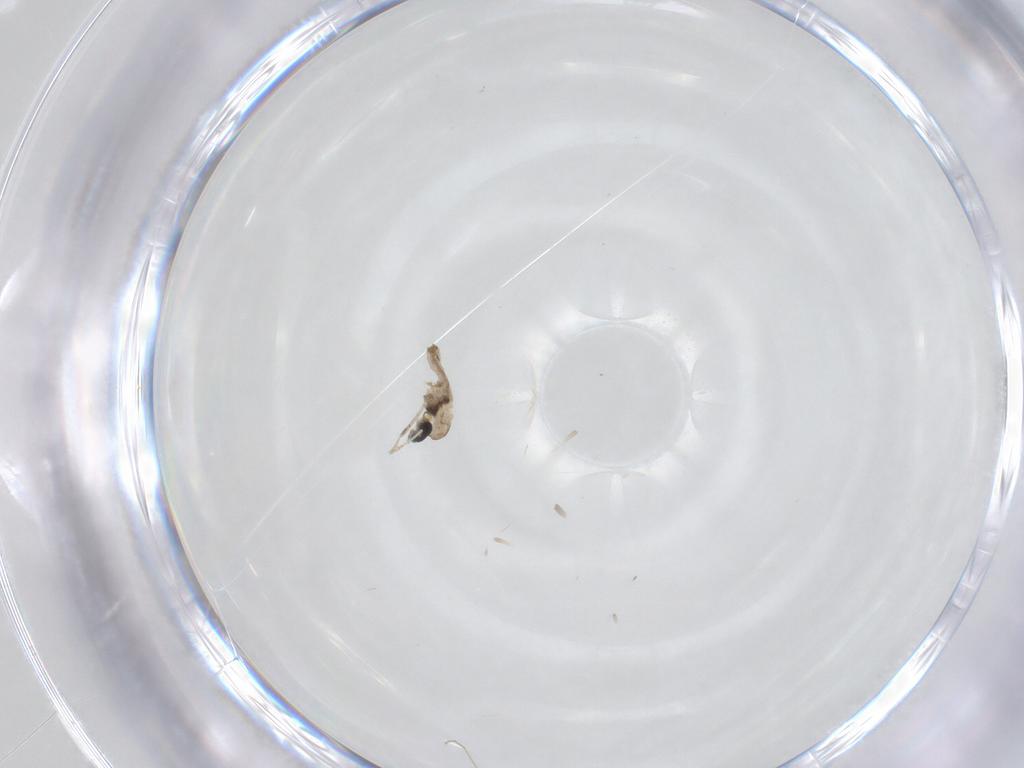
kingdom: Animalia
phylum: Arthropoda
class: Insecta
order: Diptera
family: Cecidomyiidae
